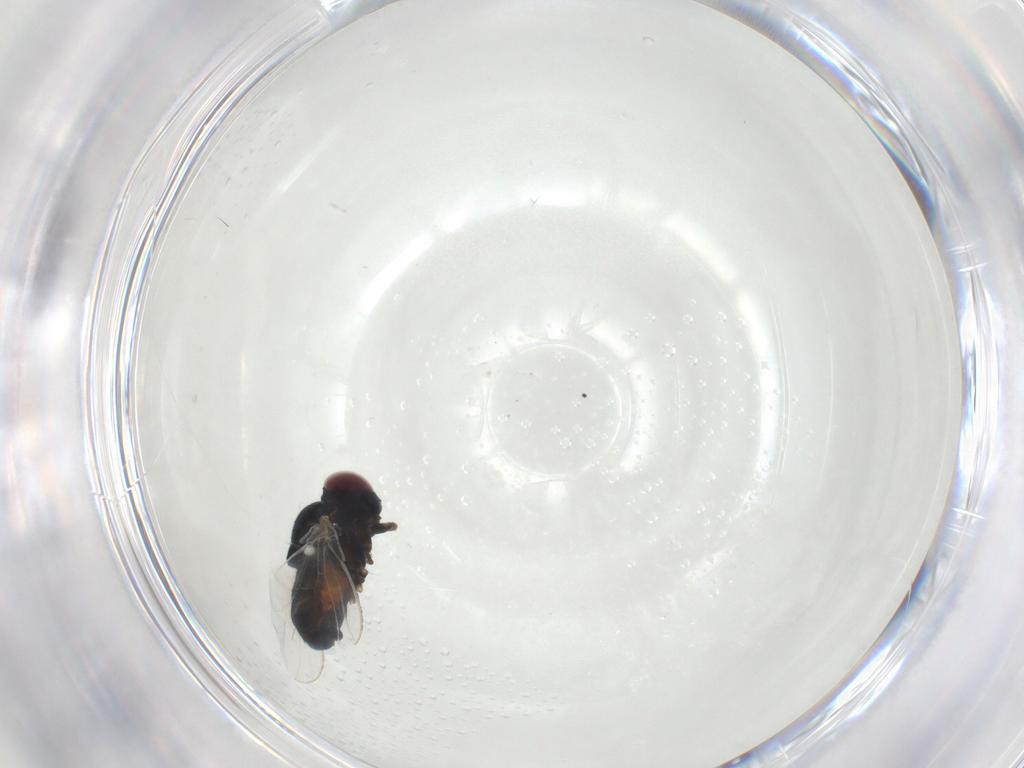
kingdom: Animalia
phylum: Arthropoda
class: Insecta
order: Diptera
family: Carnidae
